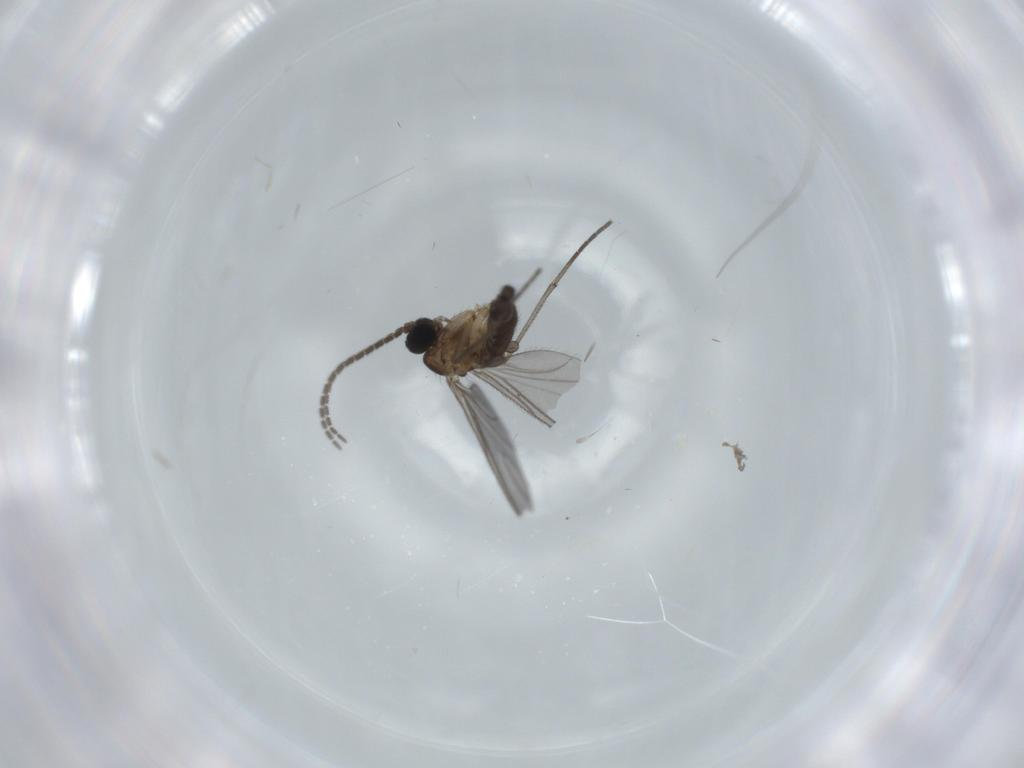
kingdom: Animalia
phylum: Arthropoda
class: Insecta
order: Diptera
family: Sciaridae
